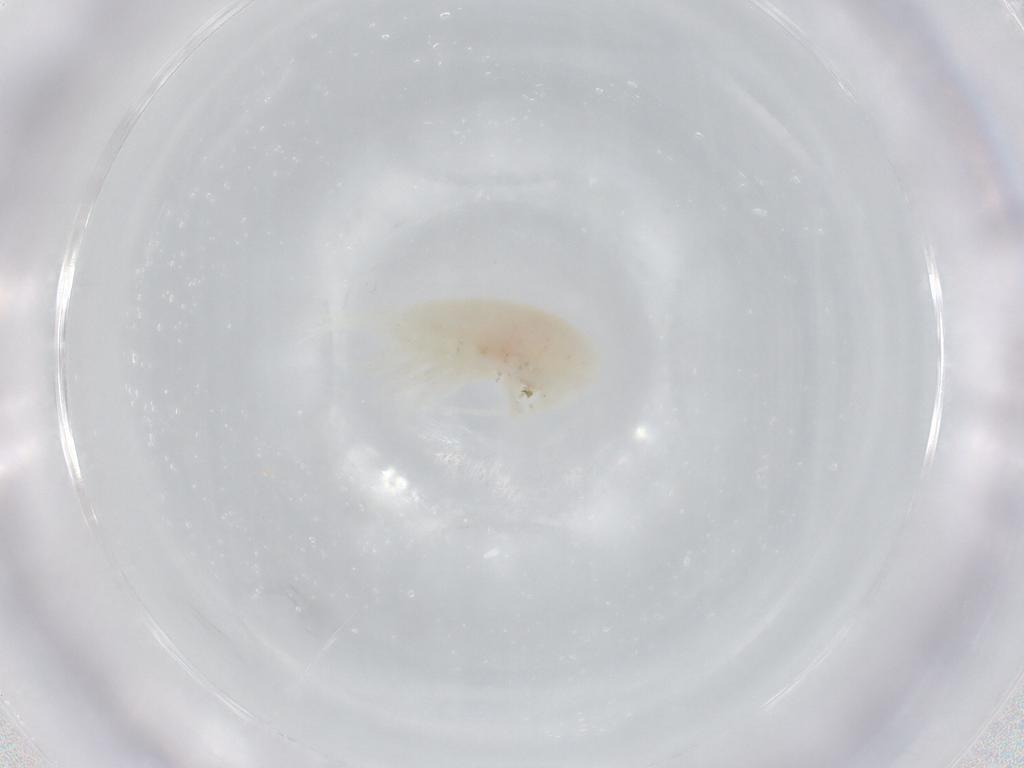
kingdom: Animalia
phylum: Arthropoda
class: Copepoda
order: Calanoida
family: Diaptomidae
